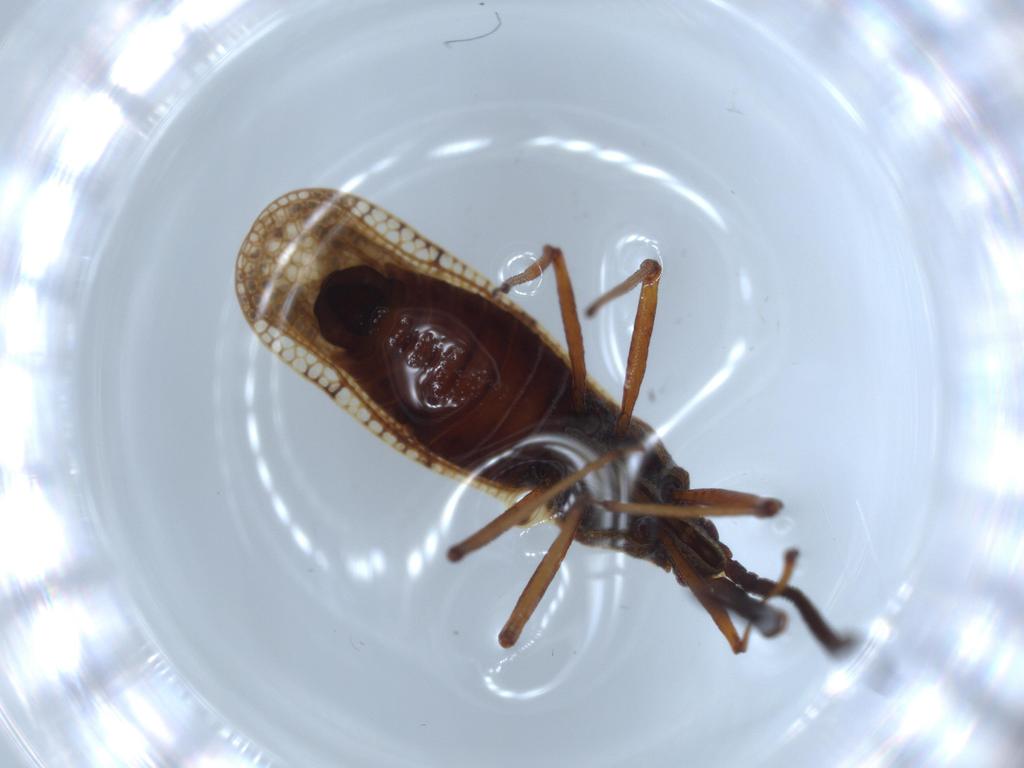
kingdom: Animalia
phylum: Arthropoda
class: Insecta
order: Hemiptera
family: Tingidae
